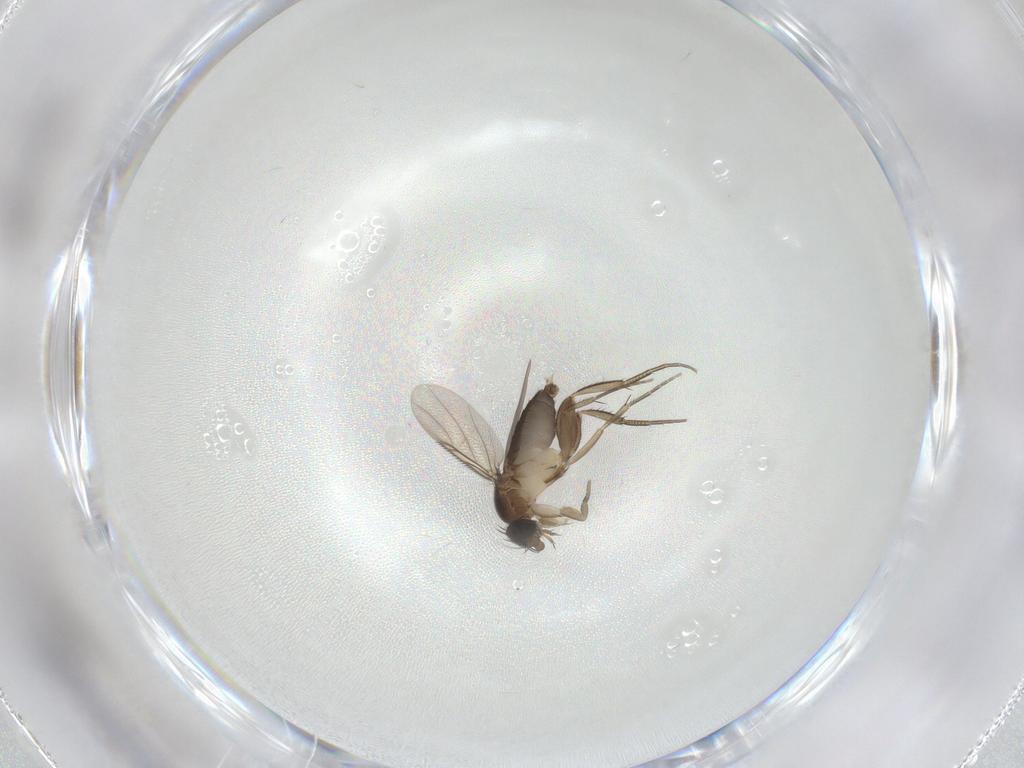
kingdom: Animalia
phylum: Arthropoda
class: Insecta
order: Diptera
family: Phoridae
